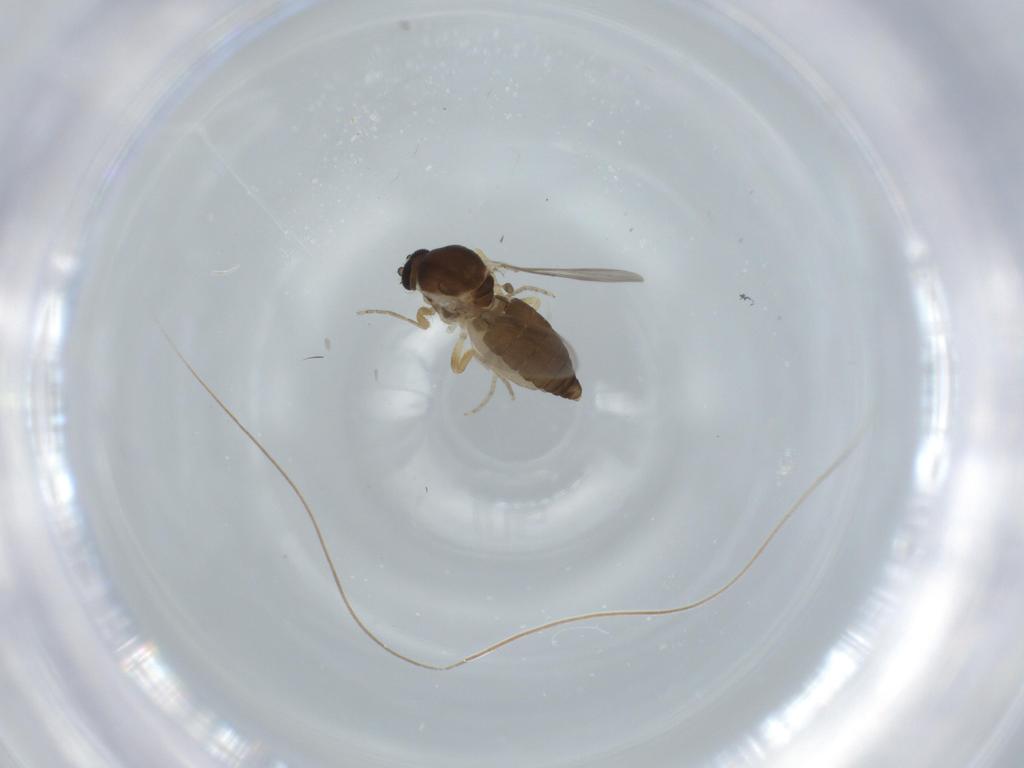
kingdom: Animalia
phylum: Arthropoda
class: Insecta
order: Diptera
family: Ceratopogonidae
